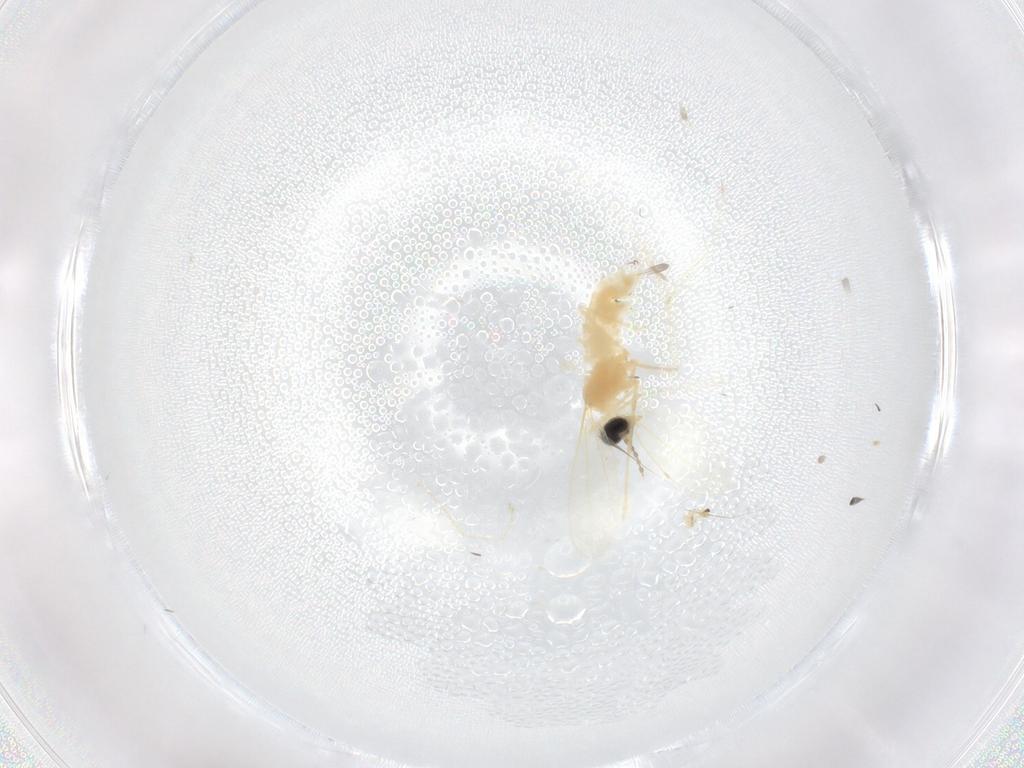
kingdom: Animalia
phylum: Arthropoda
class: Insecta
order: Diptera
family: Cecidomyiidae
